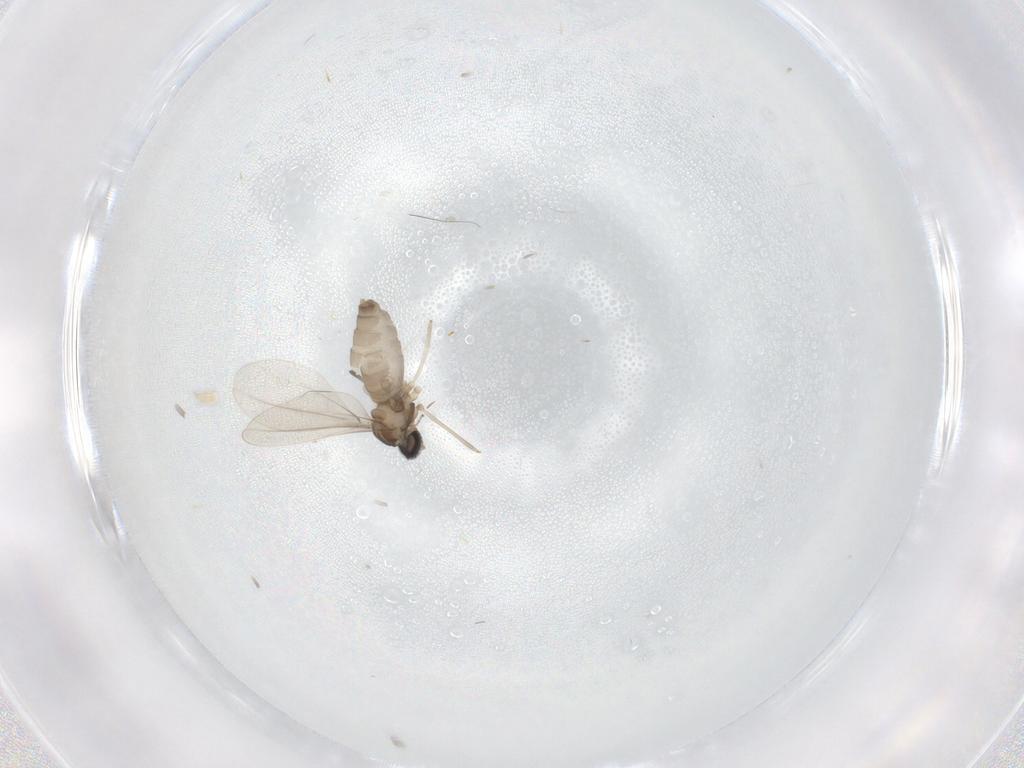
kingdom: Animalia
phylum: Arthropoda
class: Insecta
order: Diptera
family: Cecidomyiidae
